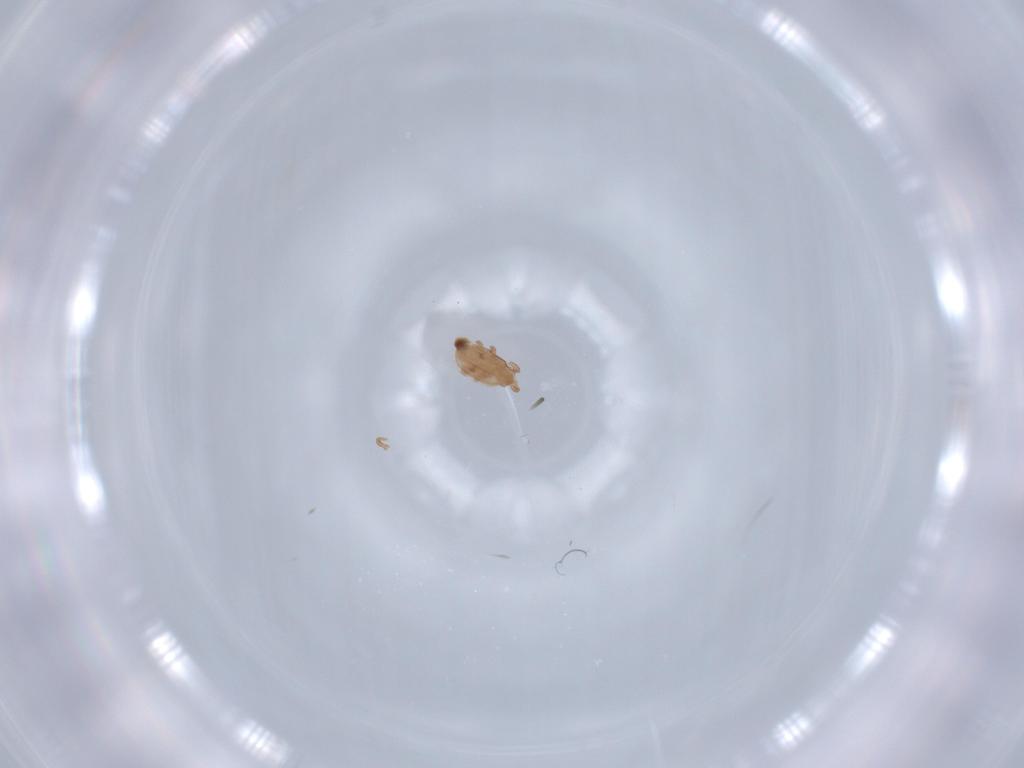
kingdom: Animalia
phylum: Arthropoda
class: Arachnida
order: Mesostigmata
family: Dinychidae
